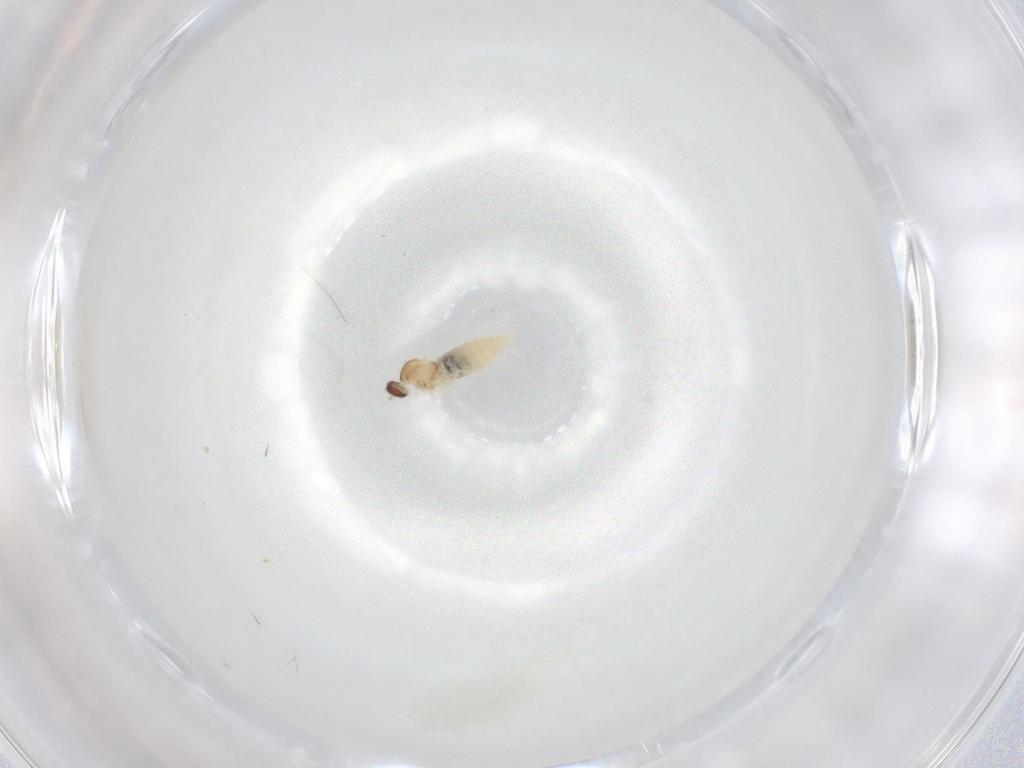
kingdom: Animalia
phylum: Arthropoda
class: Insecta
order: Diptera
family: Cecidomyiidae
